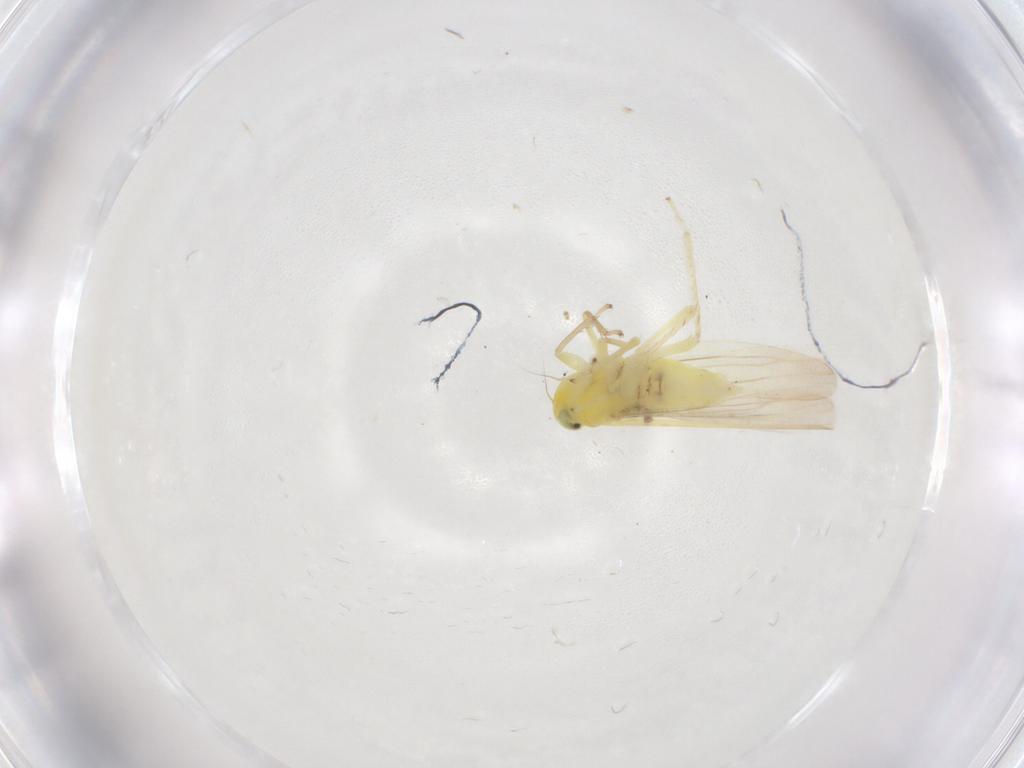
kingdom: Animalia
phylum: Arthropoda
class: Insecta
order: Hemiptera
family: Cicadellidae
